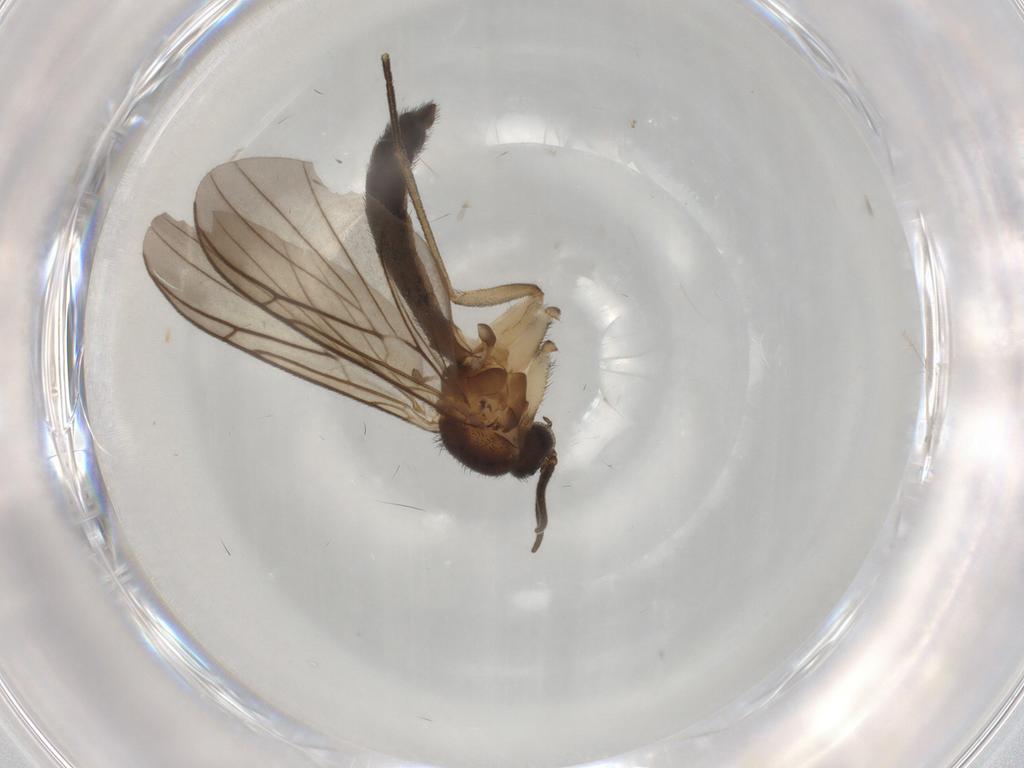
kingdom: Animalia
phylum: Arthropoda
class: Insecta
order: Diptera
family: Keroplatidae
